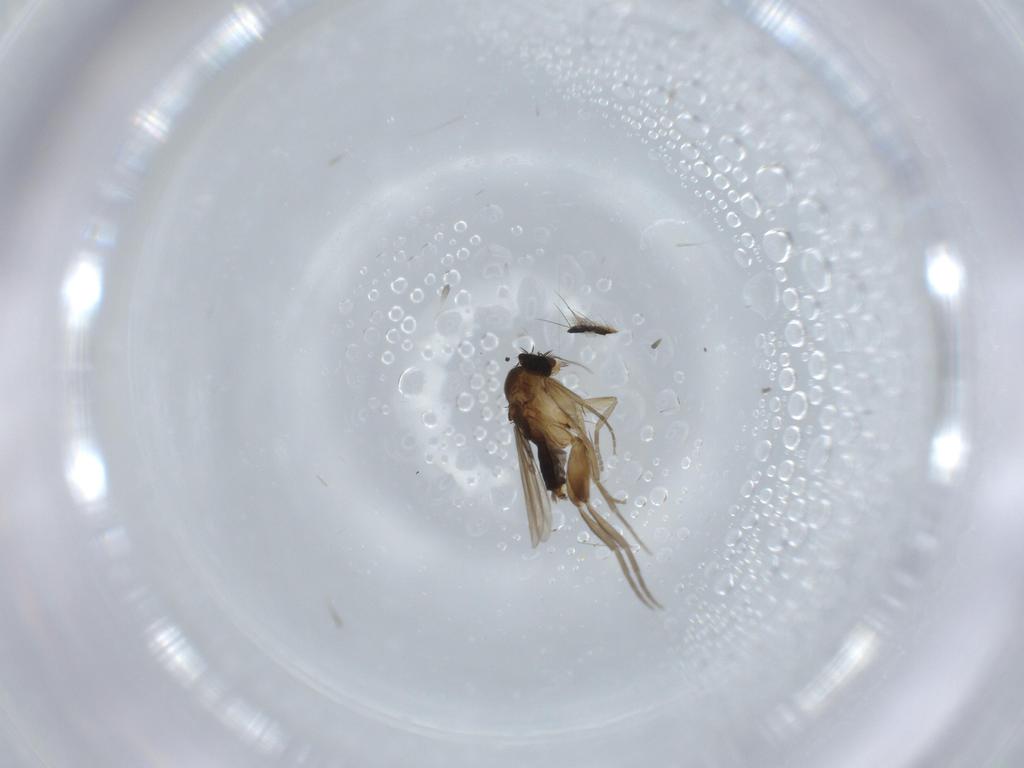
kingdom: Animalia
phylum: Arthropoda
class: Insecta
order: Diptera
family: Phoridae
